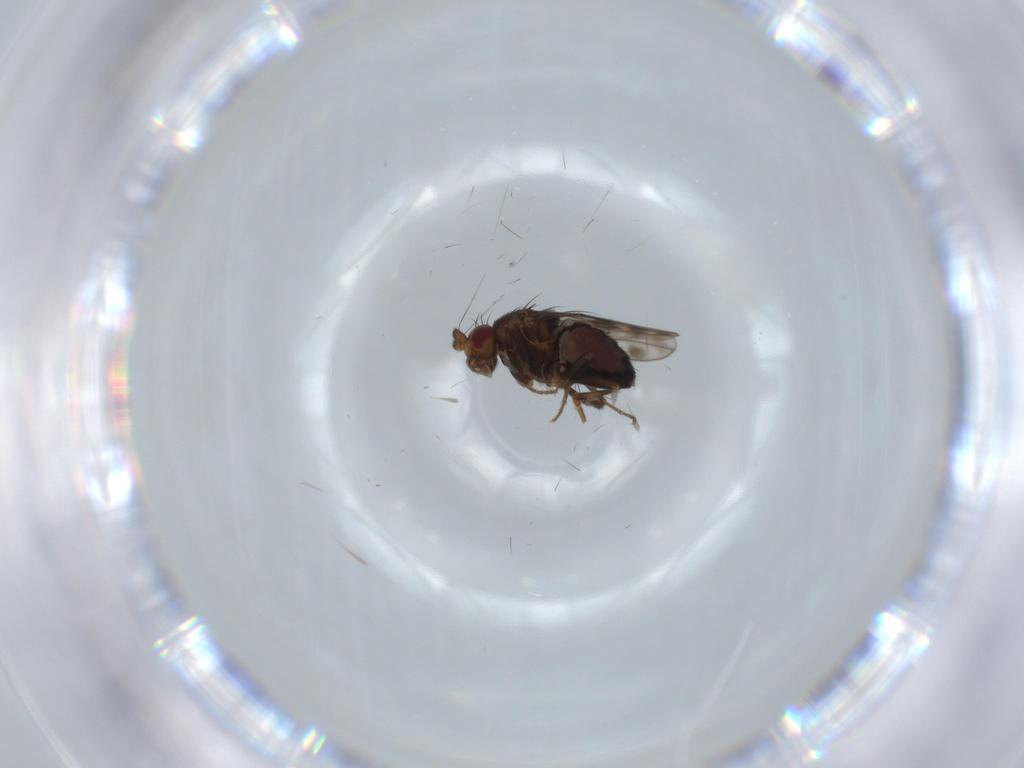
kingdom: Animalia
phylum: Arthropoda
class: Insecta
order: Diptera
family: Sphaeroceridae
